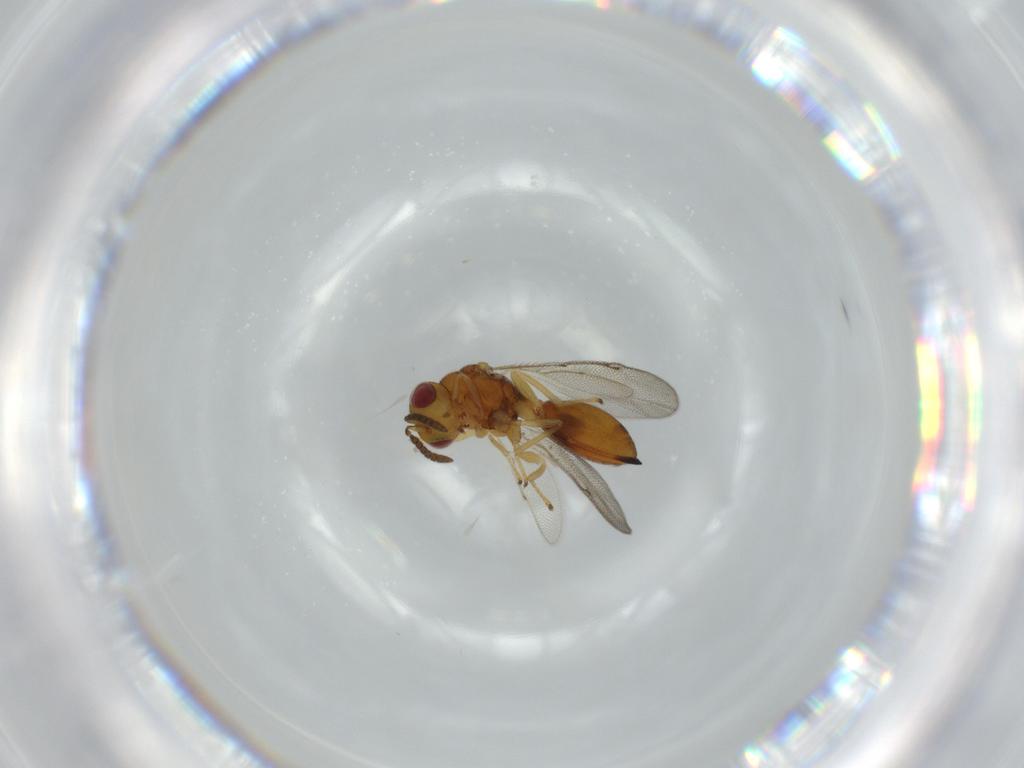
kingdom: Animalia
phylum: Arthropoda
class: Insecta
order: Hymenoptera
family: Eurytomidae
